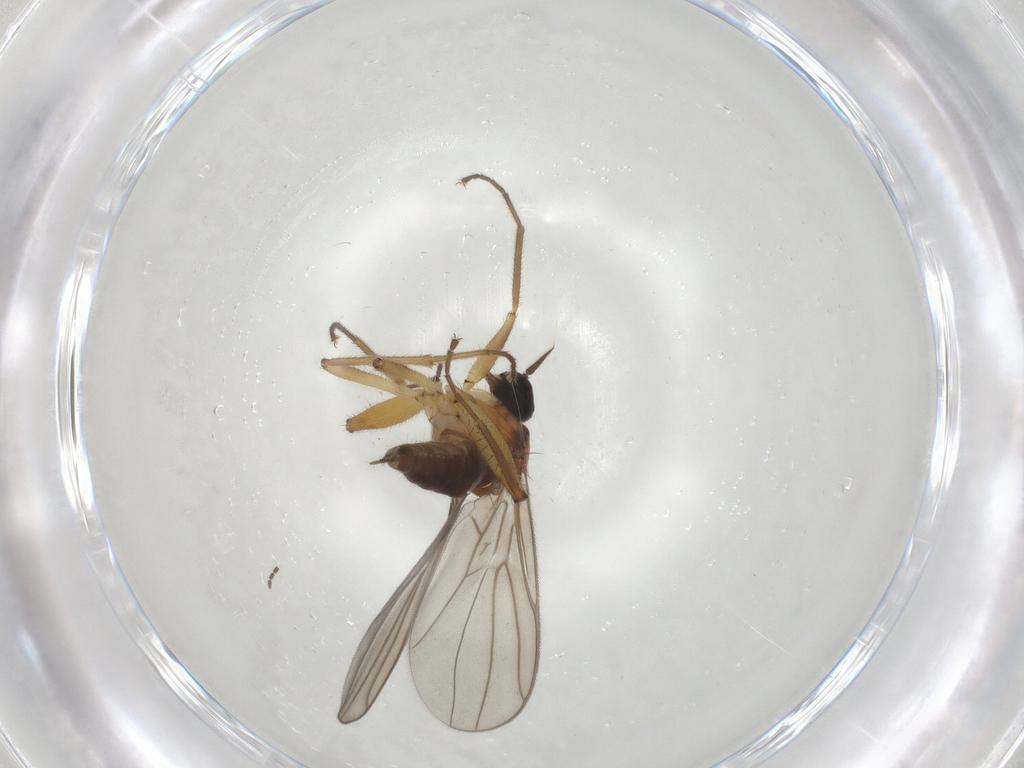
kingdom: Animalia
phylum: Arthropoda
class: Insecta
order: Diptera
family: Hybotidae
